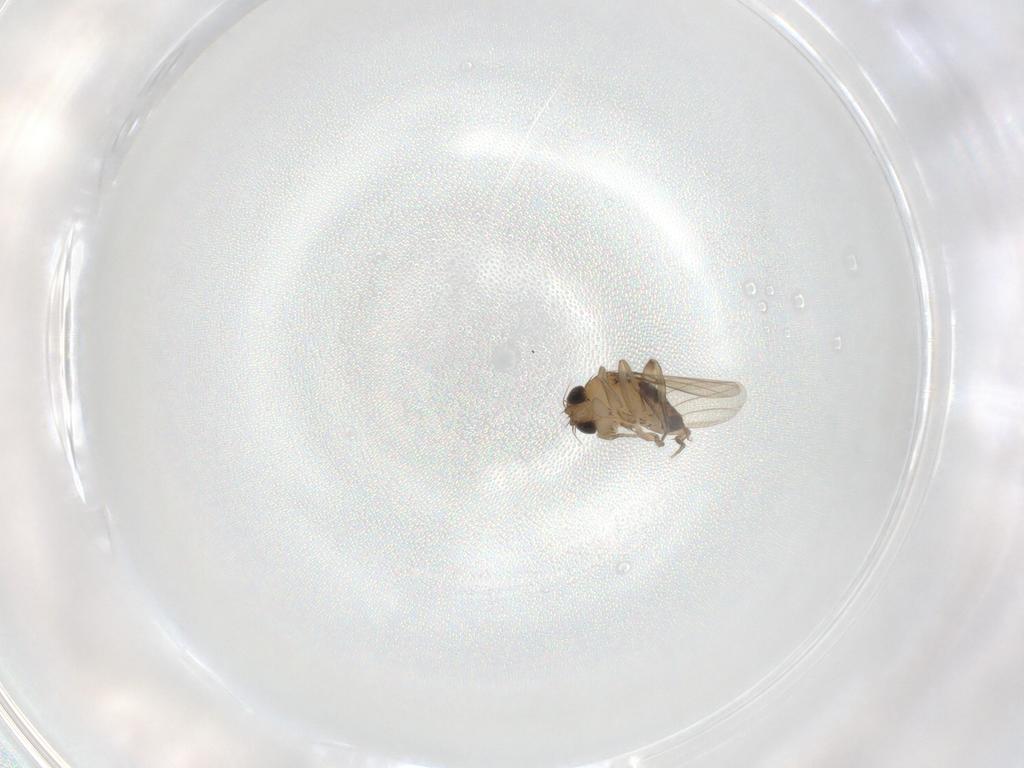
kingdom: Animalia
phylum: Arthropoda
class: Insecta
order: Diptera
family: Phoridae
